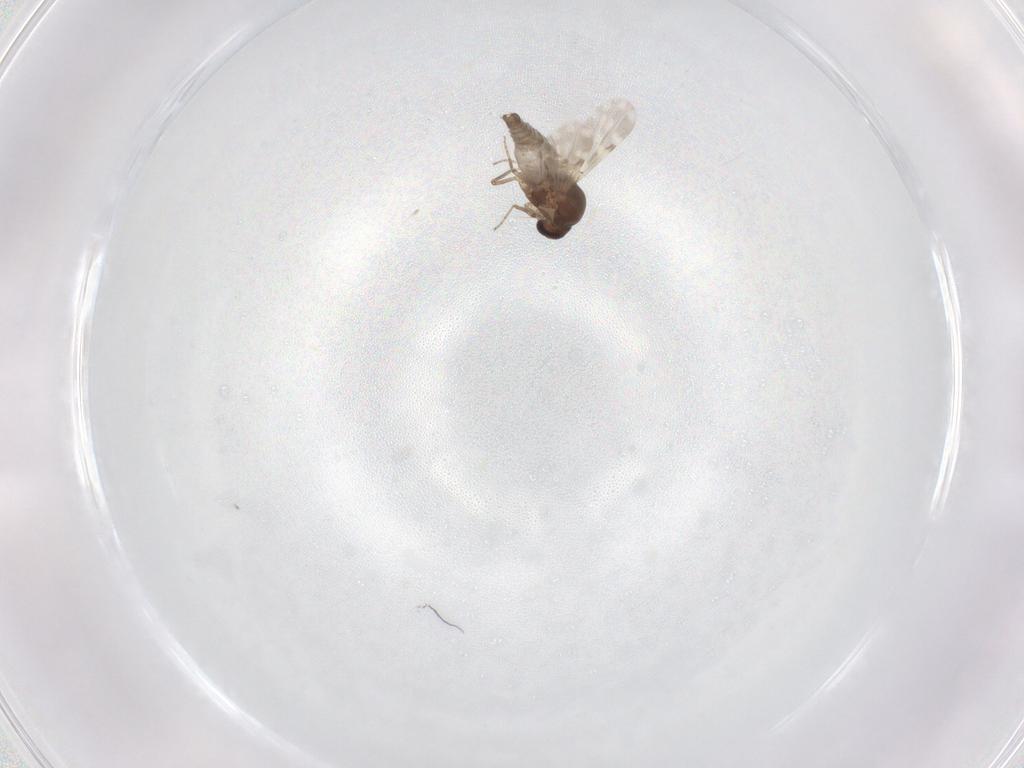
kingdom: Animalia
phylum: Arthropoda
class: Insecta
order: Diptera
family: Ceratopogonidae
